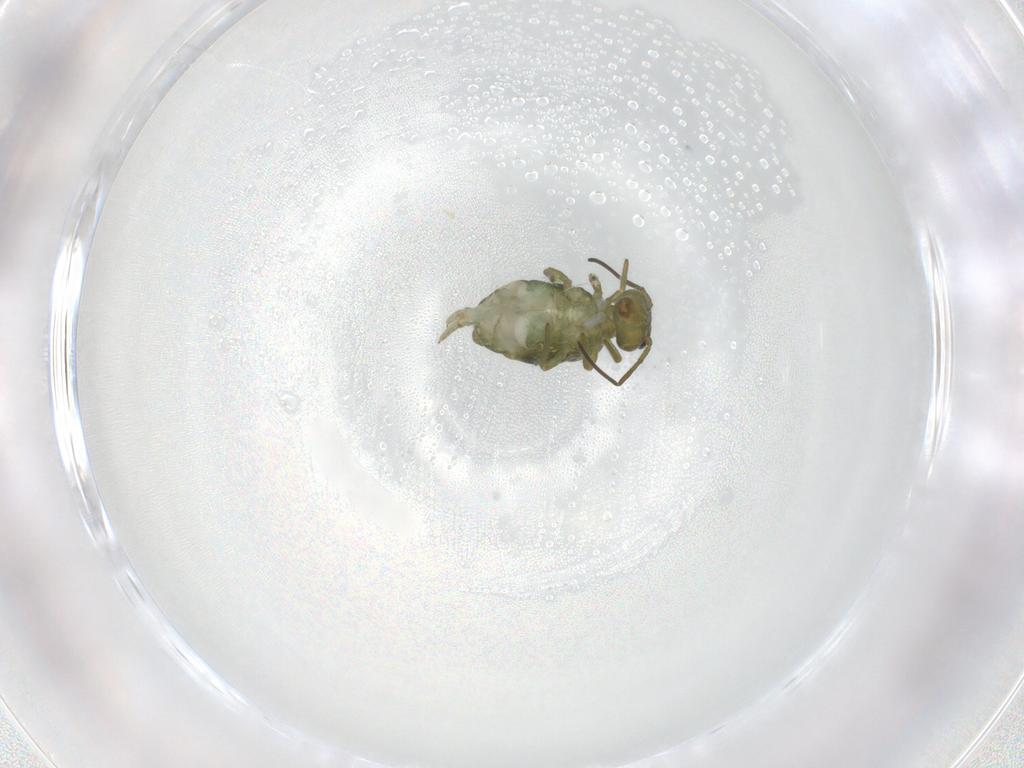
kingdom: Animalia
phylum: Arthropoda
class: Collembola
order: Symphypleona
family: Sminthuridae
